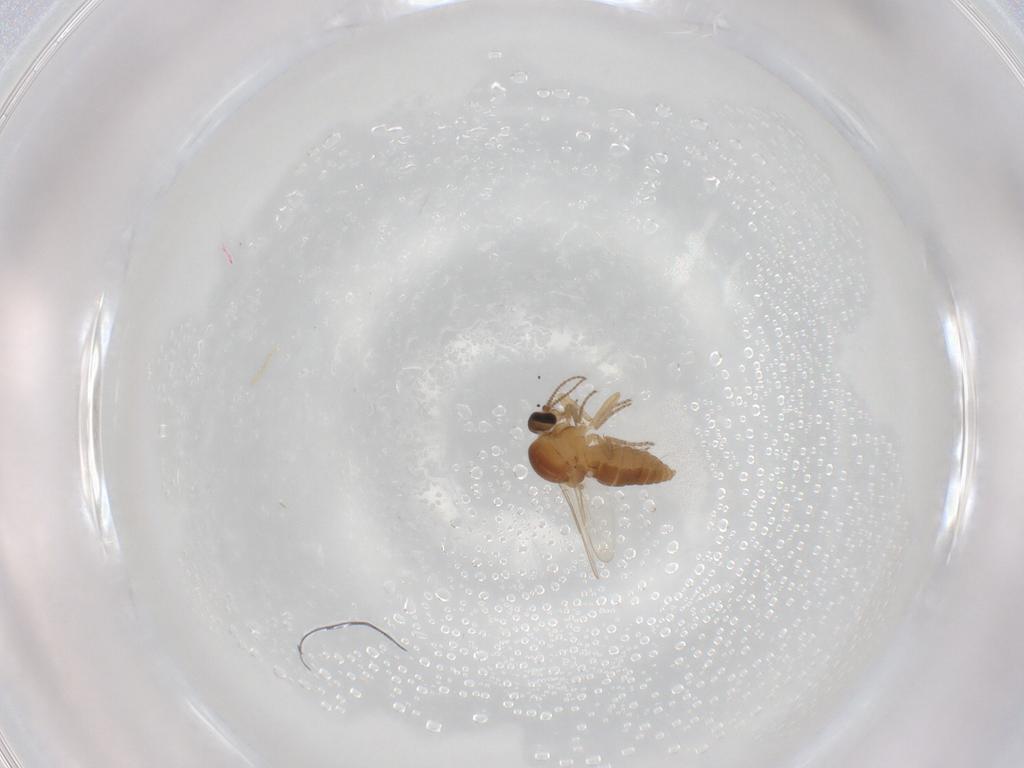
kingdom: Animalia
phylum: Arthropoda
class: Insecta
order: Diptera
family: Ceratopogonidae
